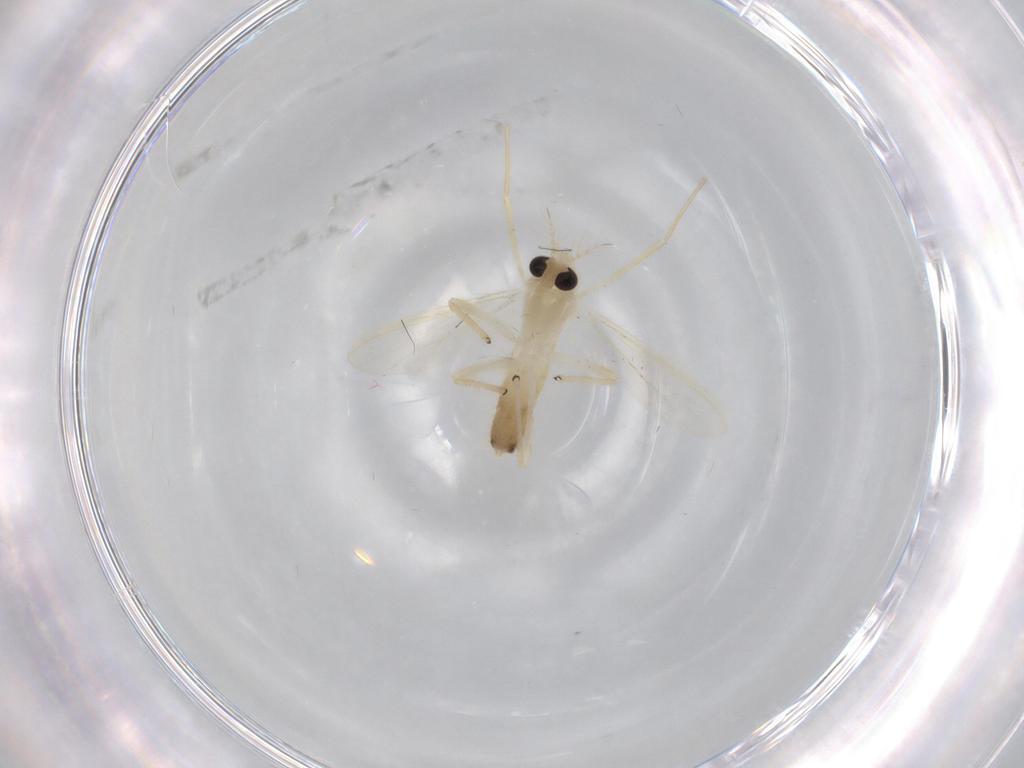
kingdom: Animalia
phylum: Arthropoda
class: Insecta
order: Diptera
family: Chironomidae
